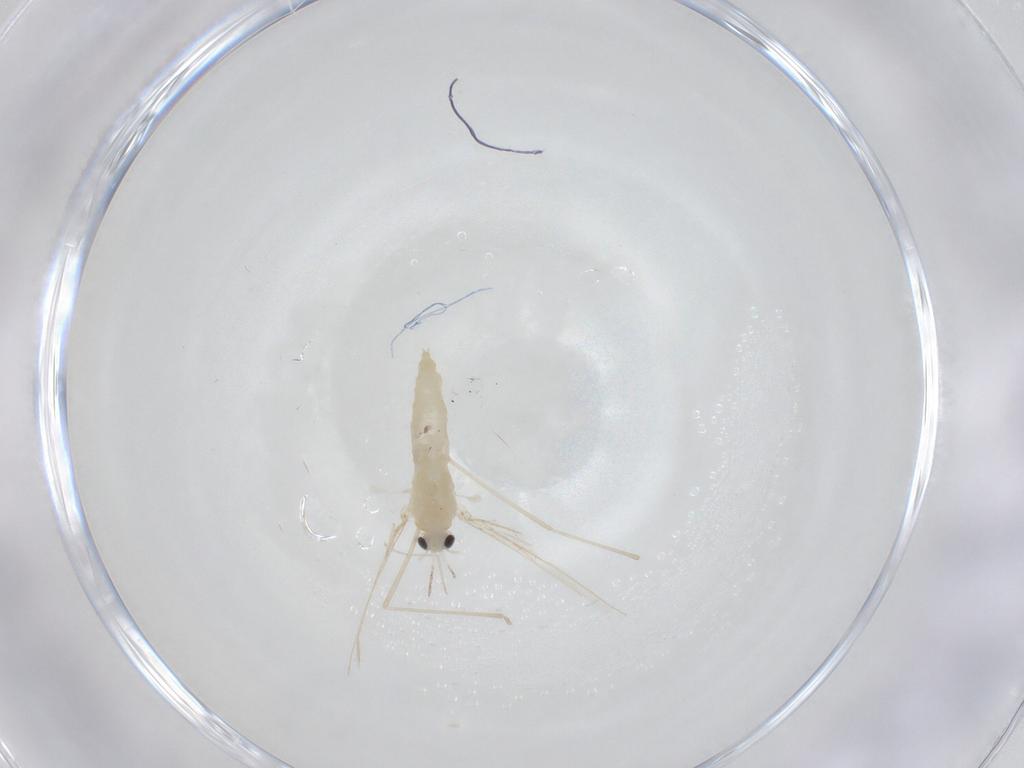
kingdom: Animalia
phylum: Arthropoda
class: Insecta
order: Diptera
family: Cecidomyiidae
